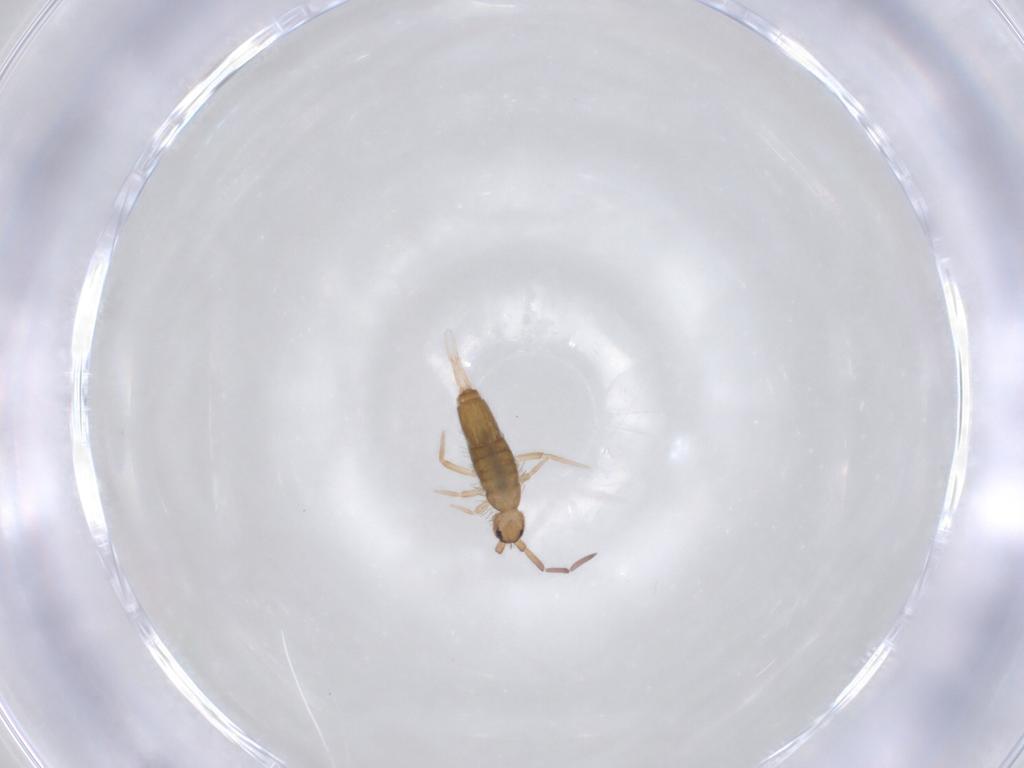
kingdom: Animalia
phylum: Arthropoda
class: Collembola
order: Entomobryomorpha
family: Entomobryidae
